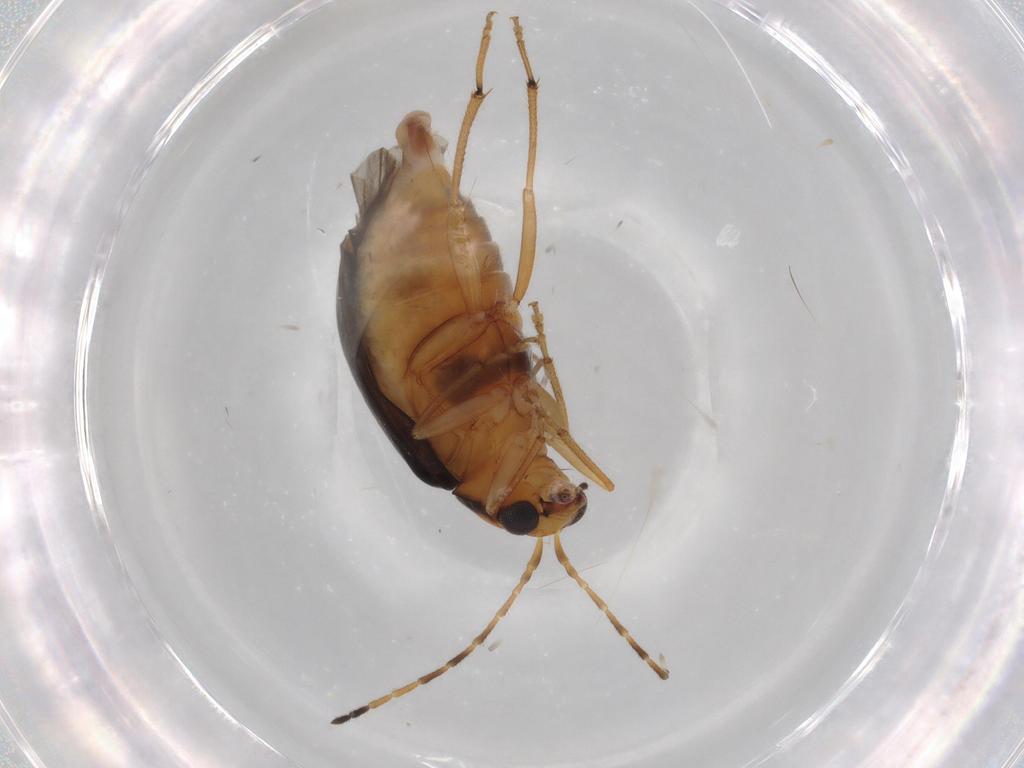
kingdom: Animalia
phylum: Arthropoda
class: Insecta
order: Coleoptera
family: Chrysomelidae
